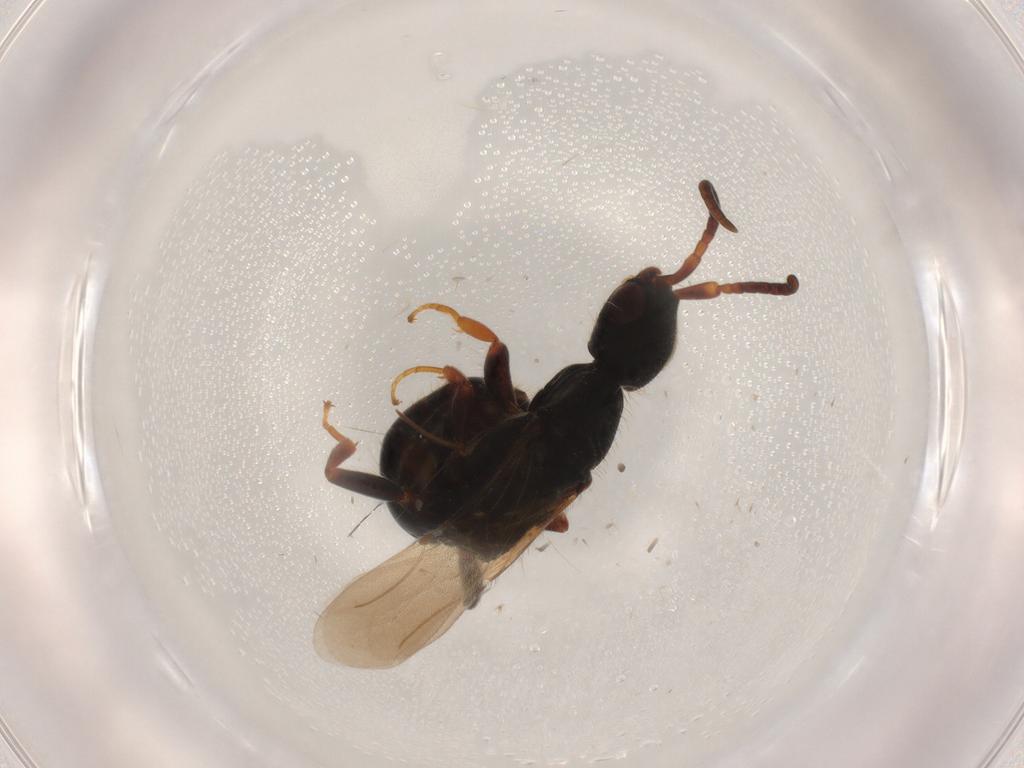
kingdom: Animalia
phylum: Arthropoda
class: Insecta
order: Hymenoptera
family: Bethylidae
